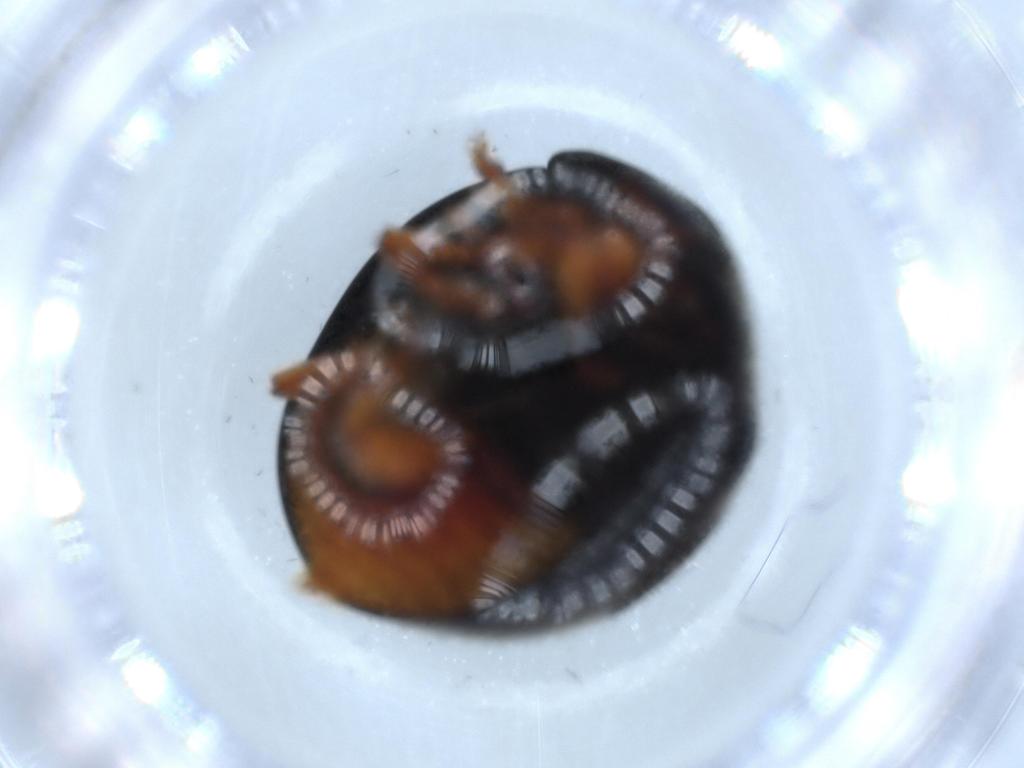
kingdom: Animalia
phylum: Arthropoda
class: Insecta
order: Coleoptera
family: Coccinellidae
